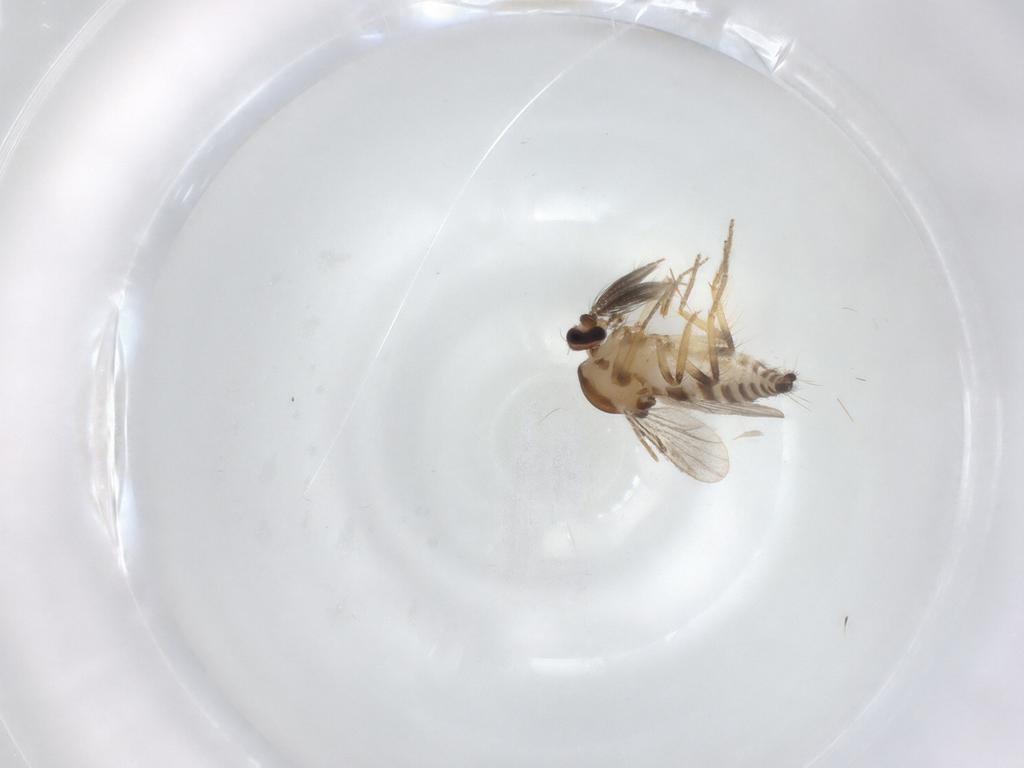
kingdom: Animalia
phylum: Arthropoda
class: Insecta
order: Diptera
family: Ceratopogonidae
